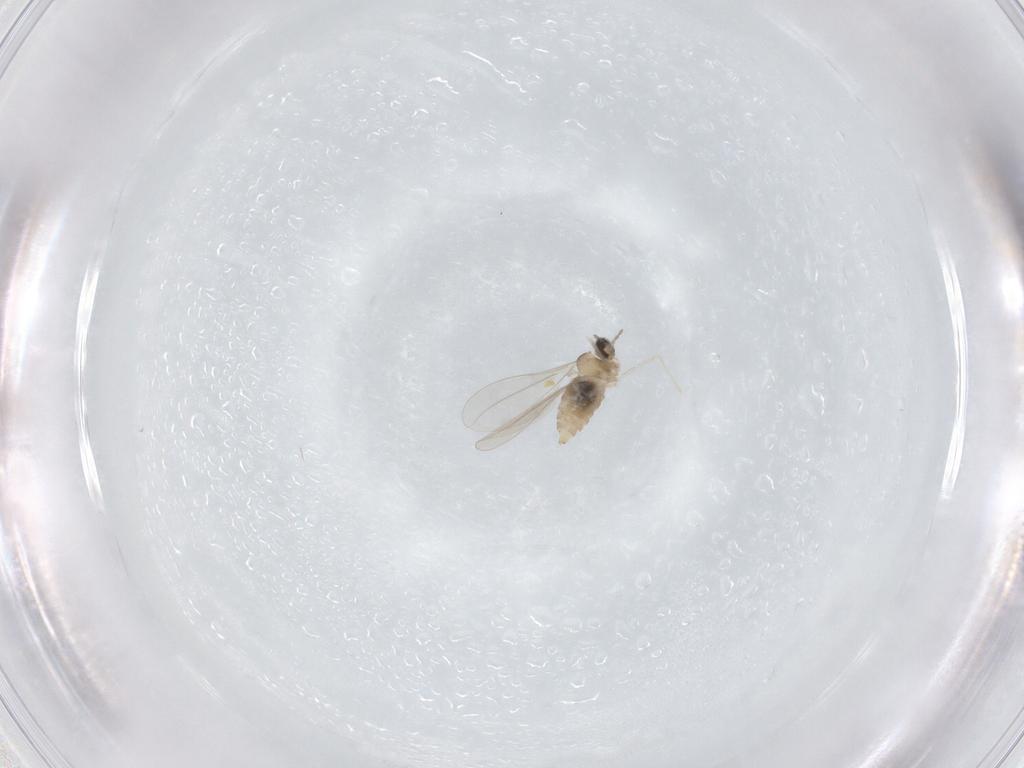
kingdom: Animalia
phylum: Arthropoda
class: Insecta
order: Diptera
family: Cecidomyiidae
